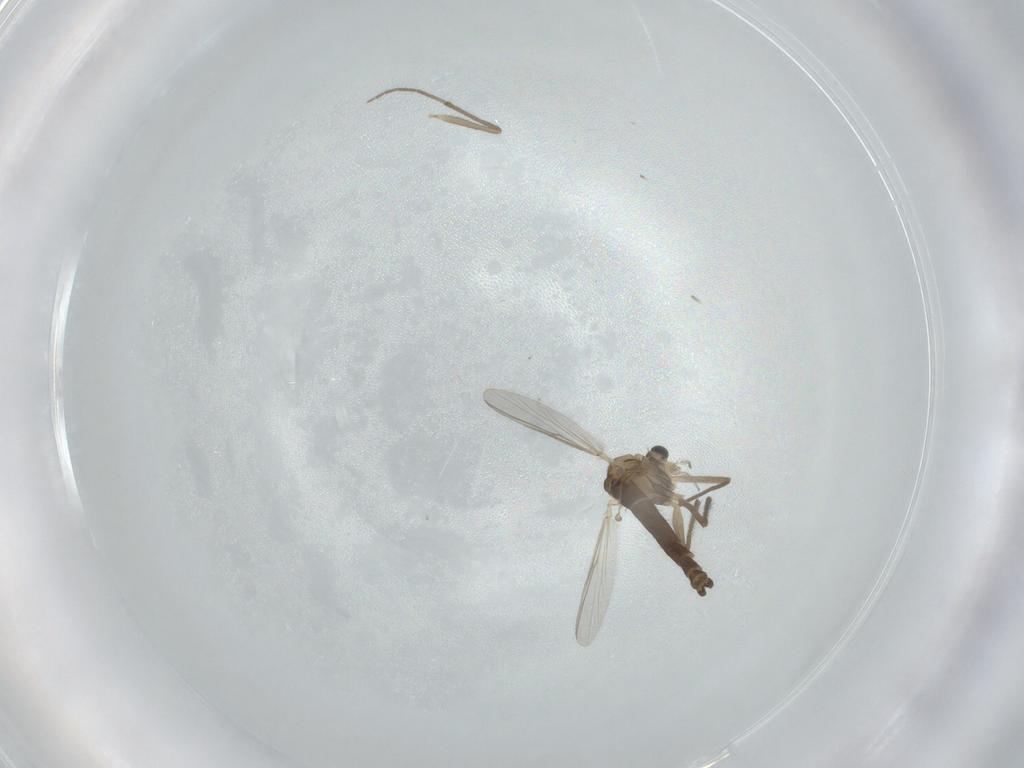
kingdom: Animalia
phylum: Arthropoda
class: Insecta
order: Diptera
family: Chironomidae
